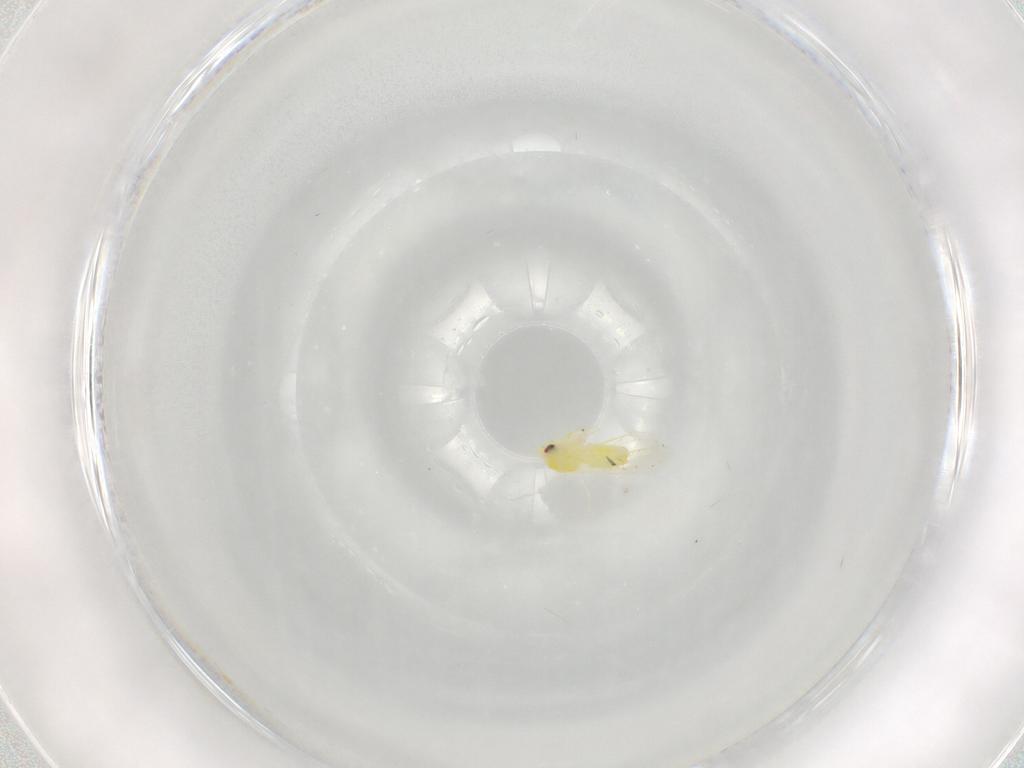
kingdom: Animalia
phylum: Arthropoda
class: Insecta
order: Hemiptera
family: Aleyrodidae
